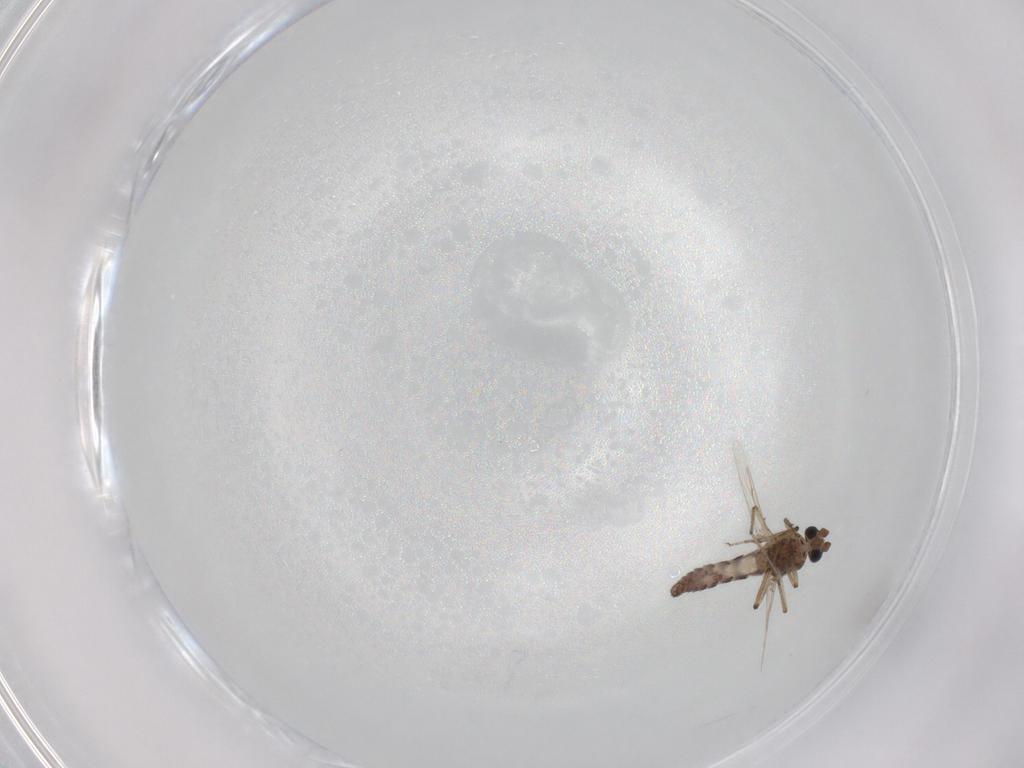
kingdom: Animalia
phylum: Arthropoda
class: Insecta
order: Diptera
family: Ceratopogonidae
